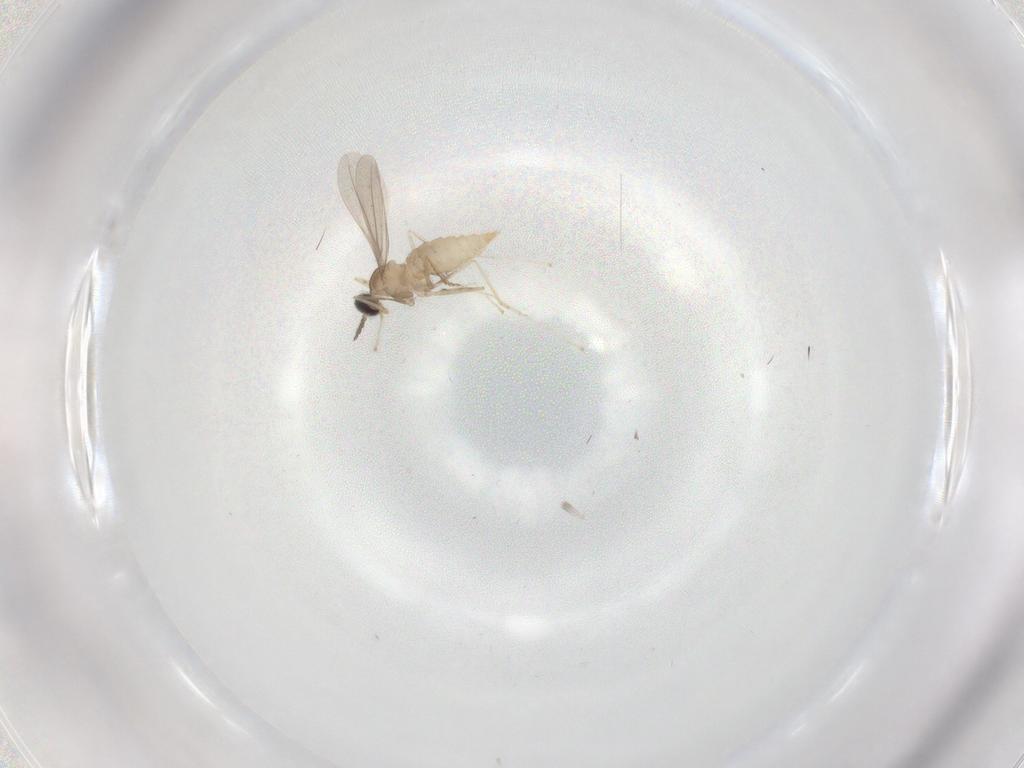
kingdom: Animalia
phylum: Arthropoda
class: Insecta
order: Diptera
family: Phoridae
